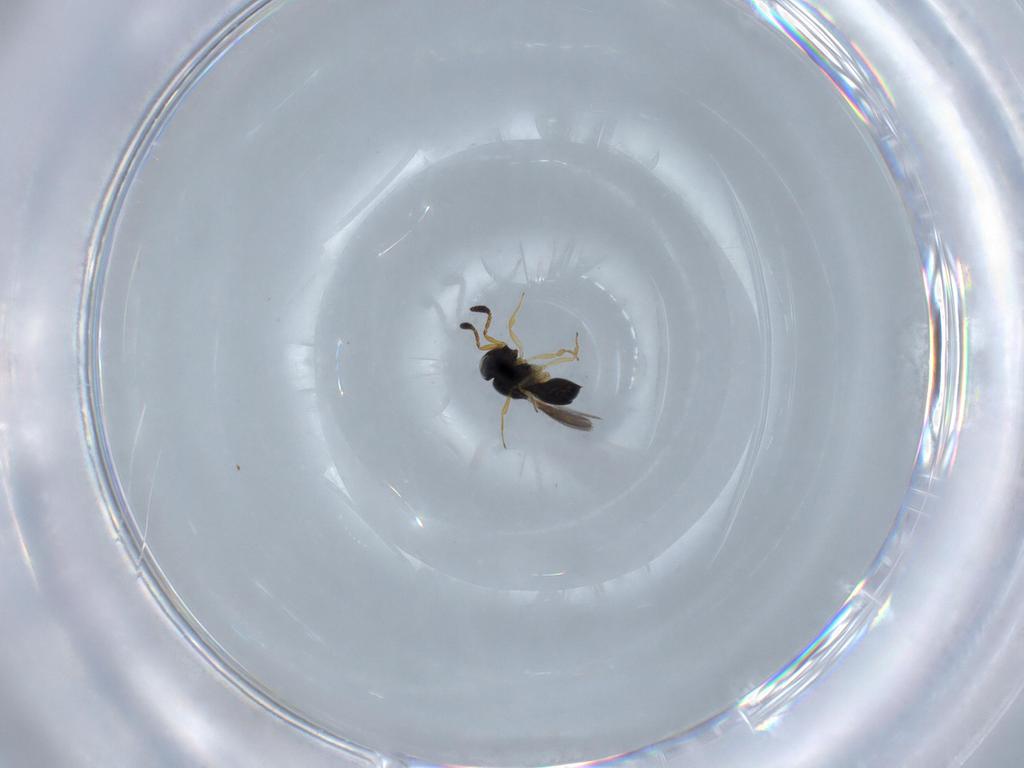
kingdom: Animalia
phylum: Arthropoda
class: Insecta
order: Hymenoptera
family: Scelionidae
